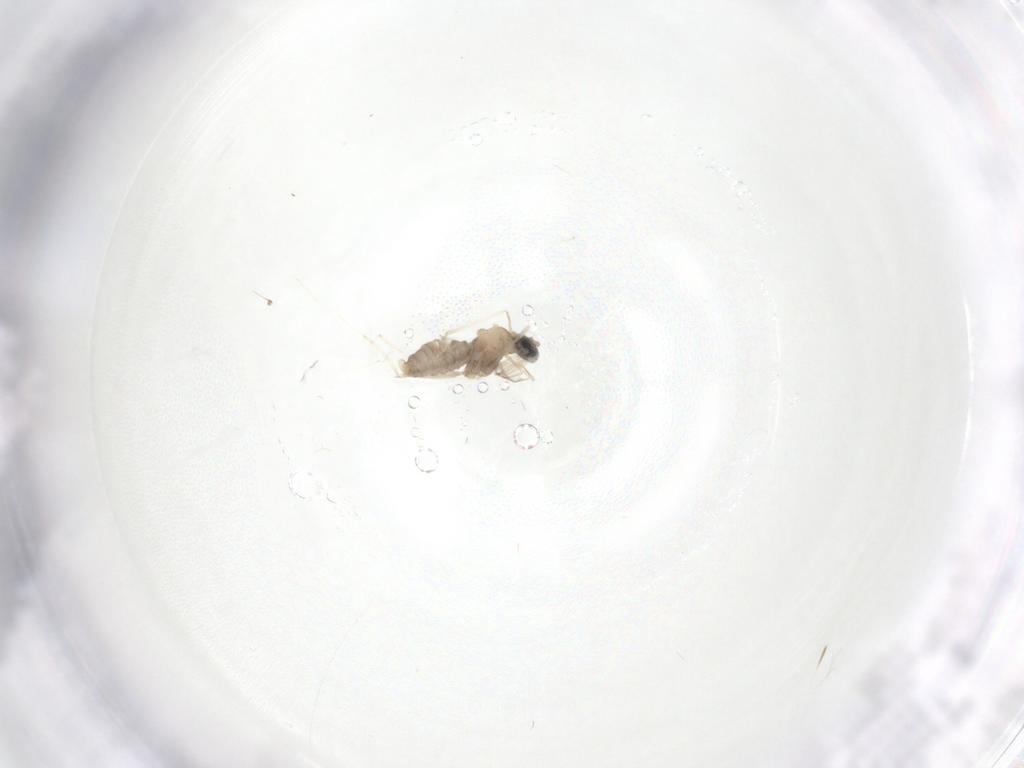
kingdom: Animalia
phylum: Arthropoda
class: Insecta
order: Diptera
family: Cecidomyiidae
